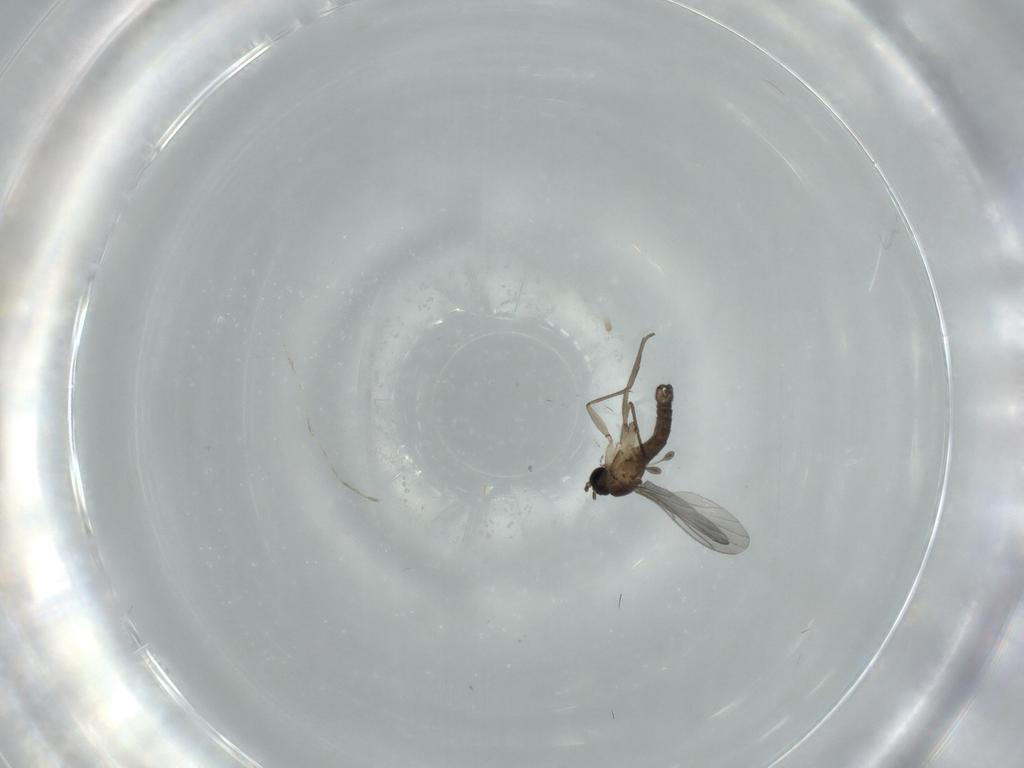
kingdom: Animalia
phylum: Arthropoda
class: Insecta
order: Diptera
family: Sciaridae
